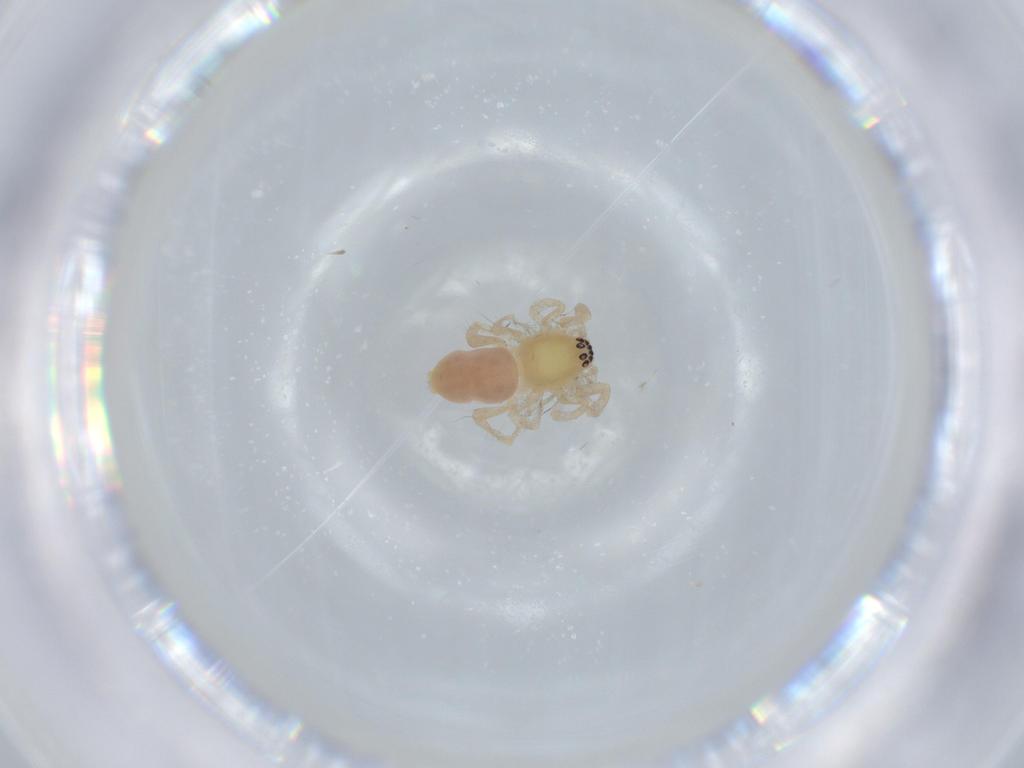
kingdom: Animalia
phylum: Arthropoda
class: Arachnida
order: Araneae
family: Anyphaenidae
